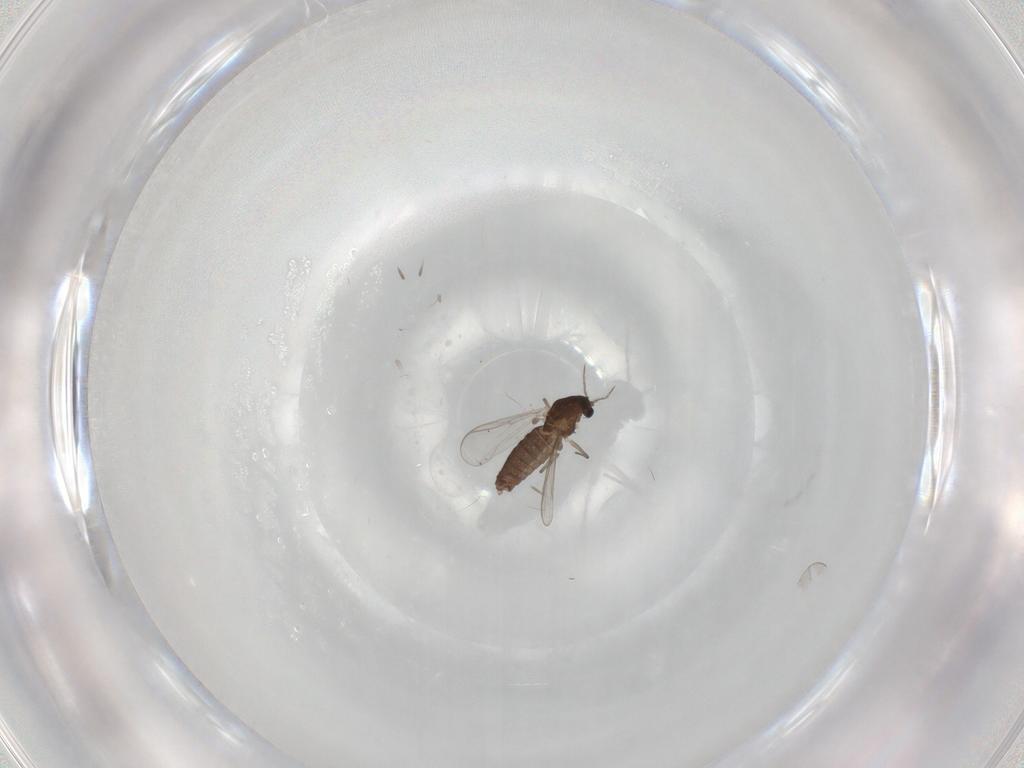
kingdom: Animalia
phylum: Arthropoda
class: Insecta
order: Diptera
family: Chironomidae
